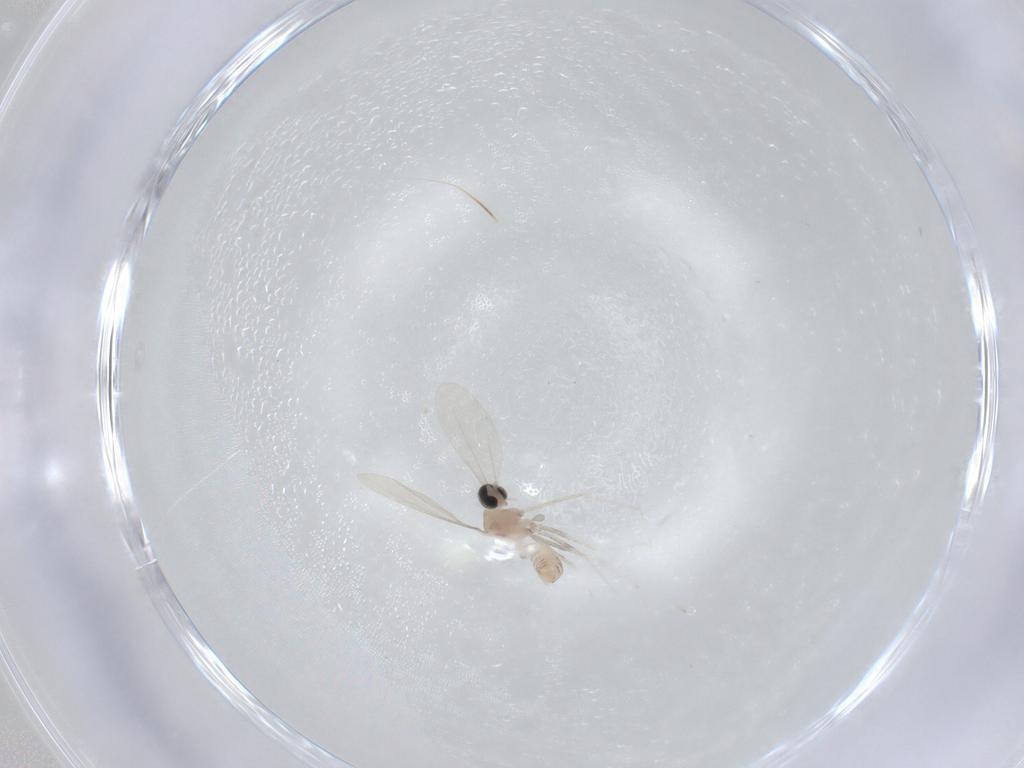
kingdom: Animalia
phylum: Arthropoda
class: Insecta
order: Diptera
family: Cecidomyiidae
